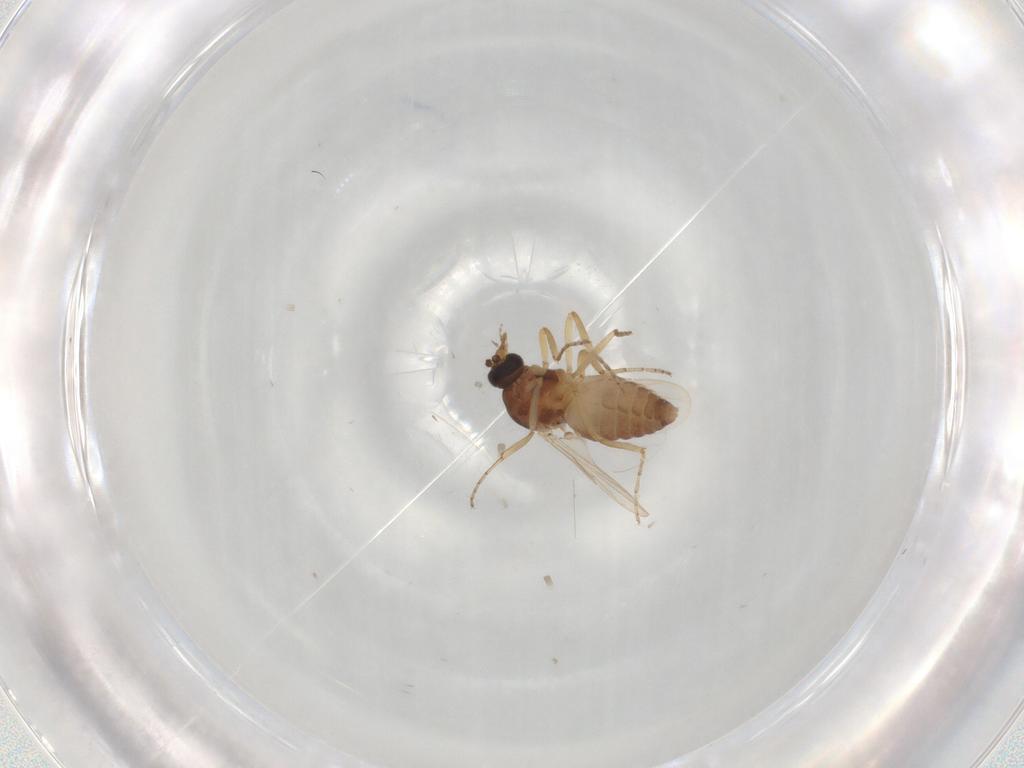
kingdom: Animalia
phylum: Arthropoda
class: Insecta
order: Diptera
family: Ceratopogonidae
